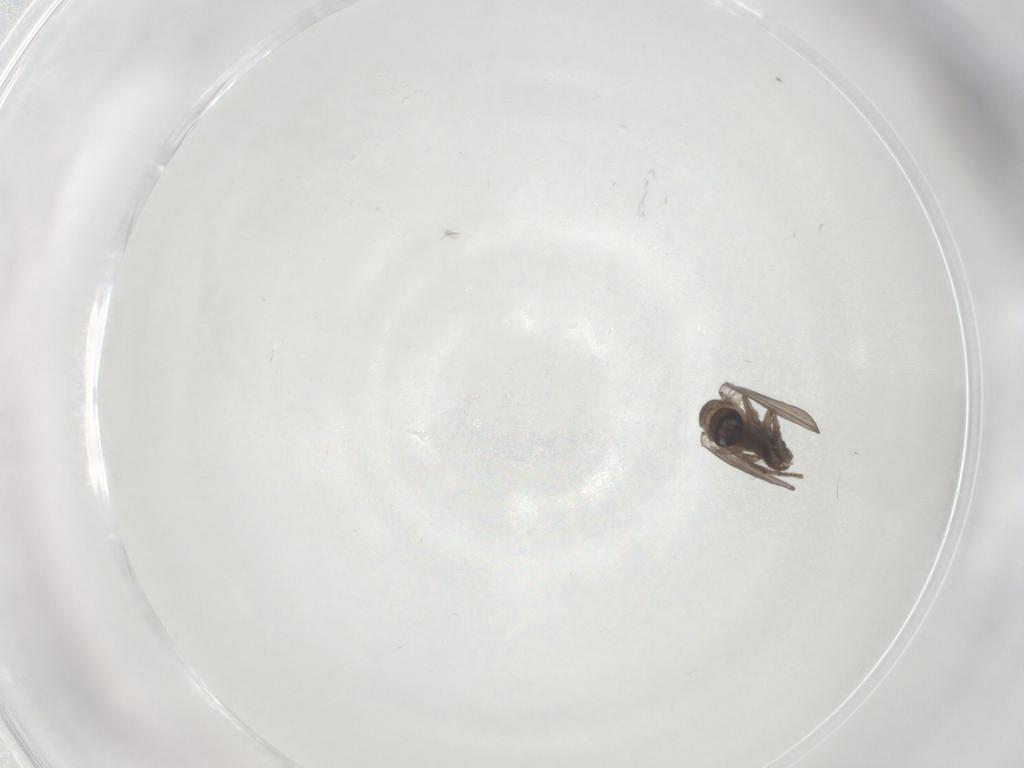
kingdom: Animalia
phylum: Arthropoda
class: Insecta
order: Diptera
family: Psychodidae
